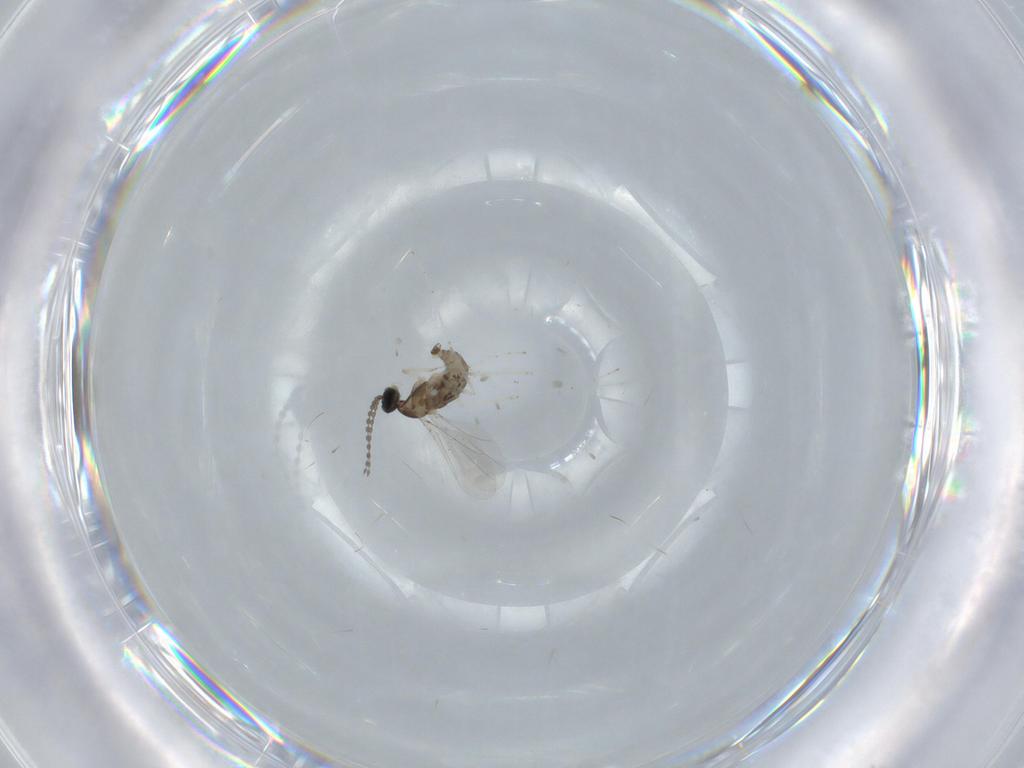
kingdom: Animalia
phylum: Arthropoda
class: Insecta
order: Diptera
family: Cecidomyiidae
